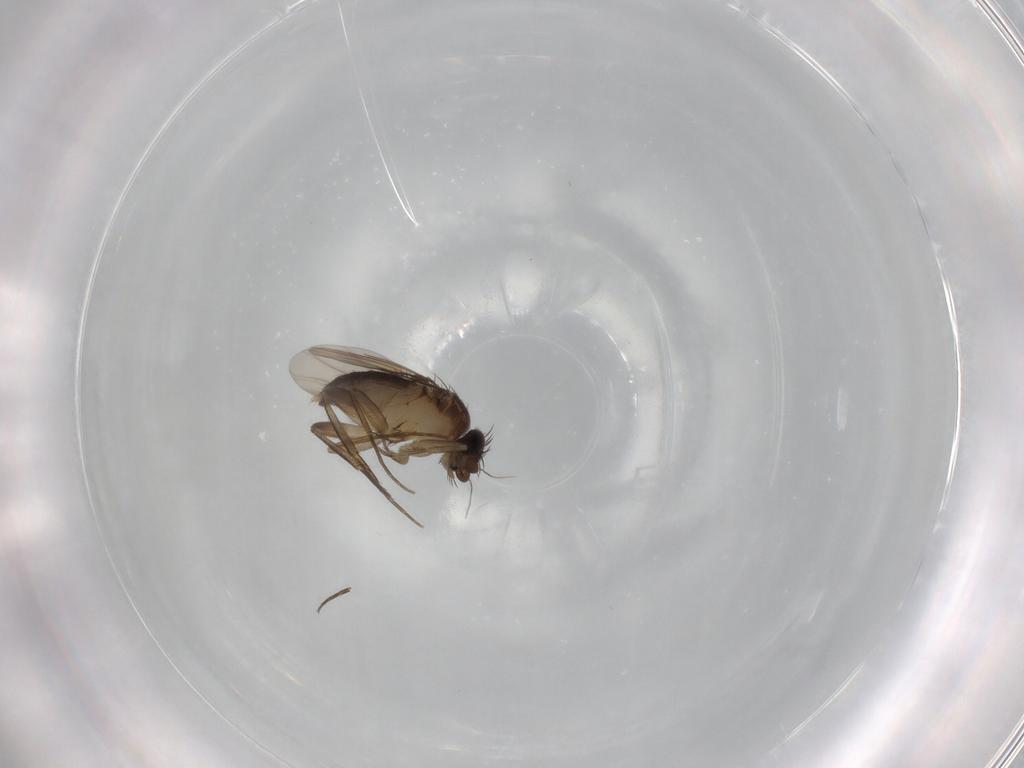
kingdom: Animalia
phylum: Arthropoda
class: Insecta
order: Diptera
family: Phoridae
